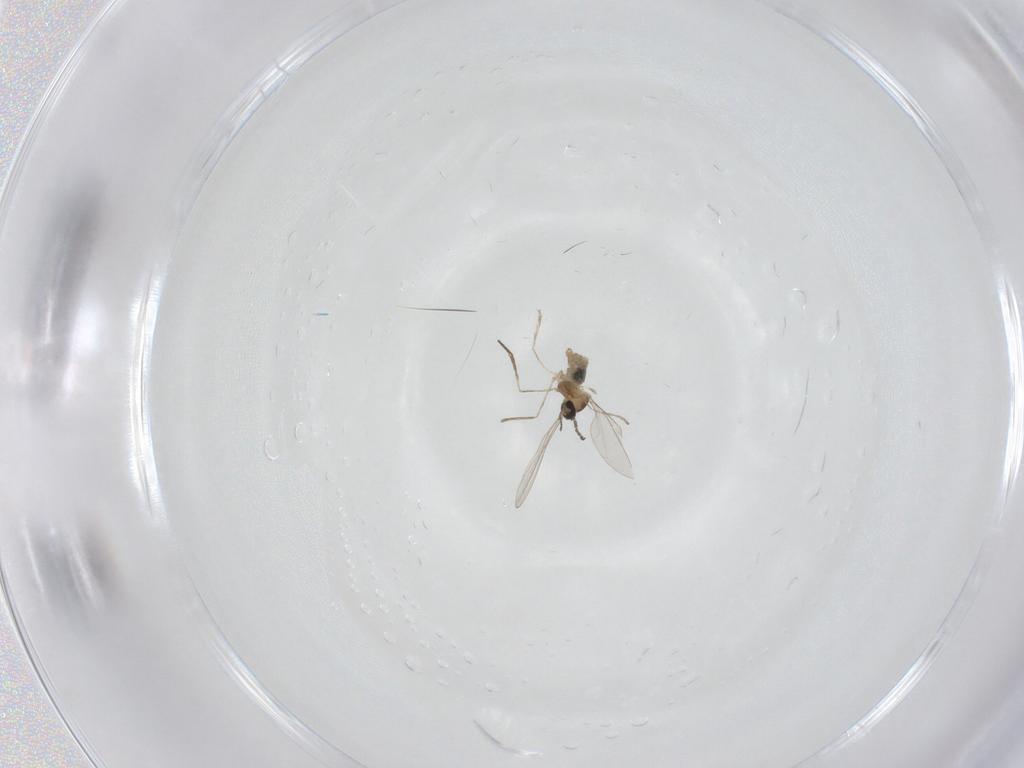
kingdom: Animalia
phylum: Arthropoda
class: Insecta
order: Diptera
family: Cecidomyiidae
